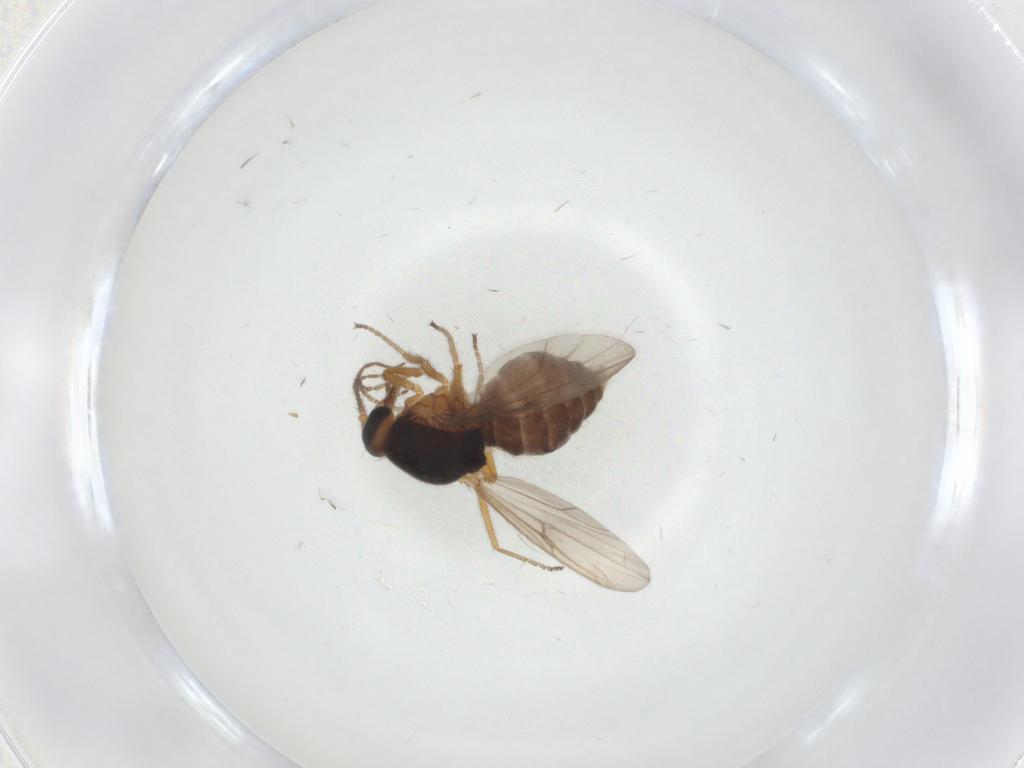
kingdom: Animalia
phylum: Arthropoda
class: Insecta
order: Diptera
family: Ceratopogonidae
